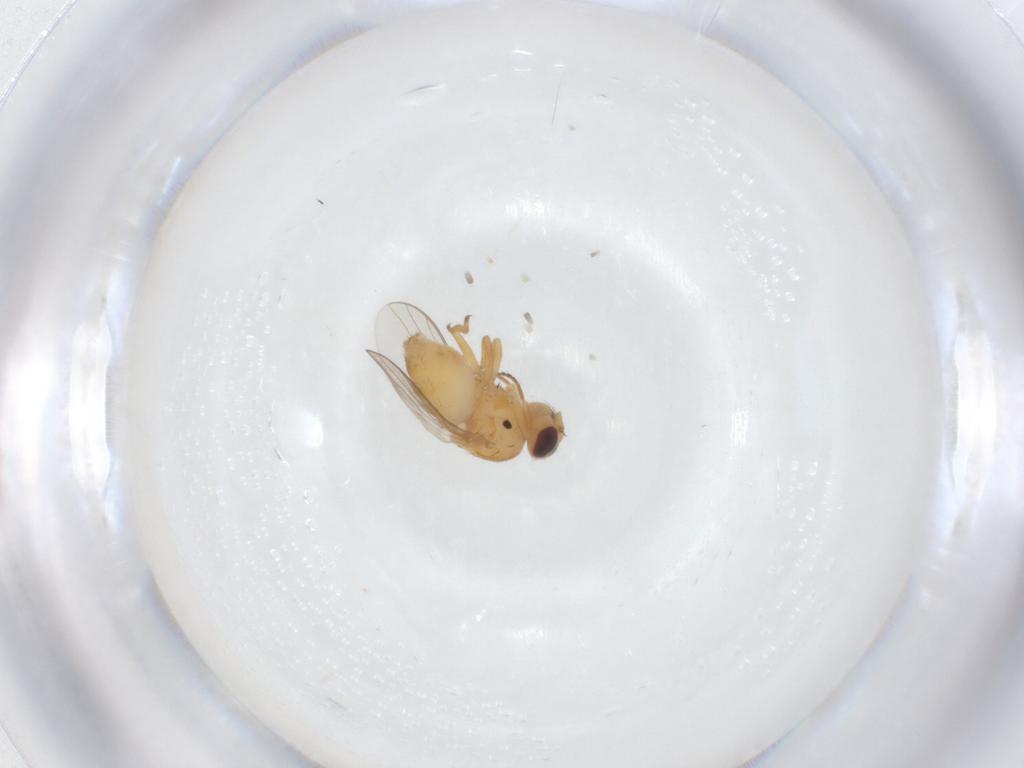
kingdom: Animalia
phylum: Arthropoda
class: Insecta
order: Diptera
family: Chloropidae
